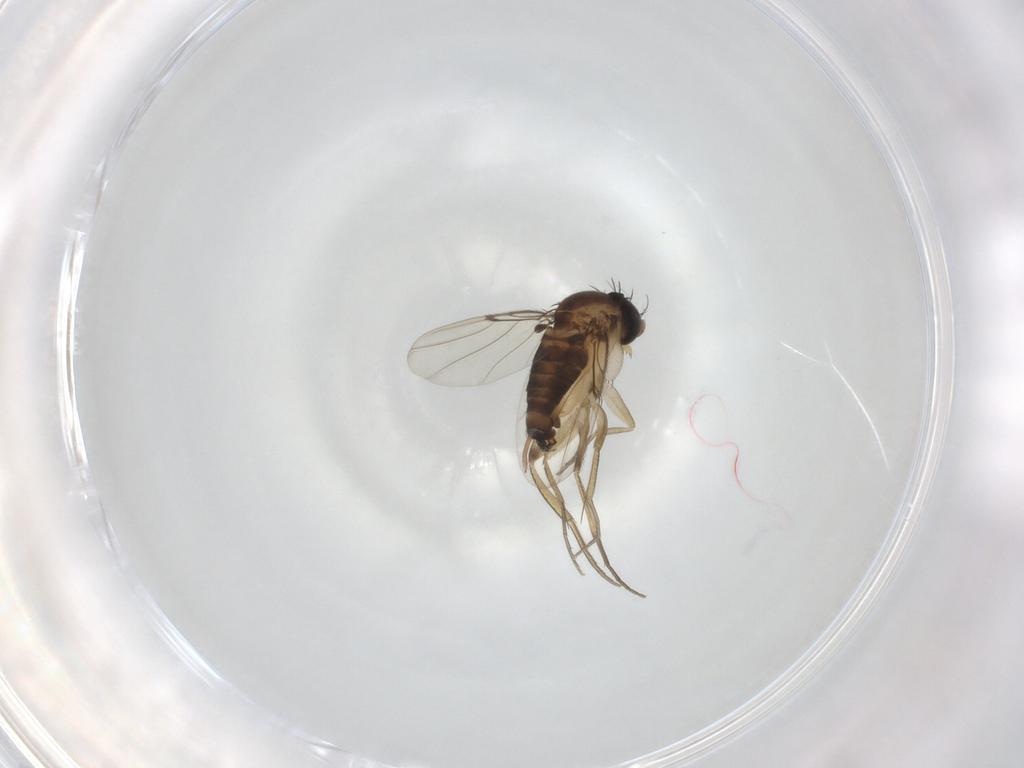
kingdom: Animalia
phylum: Arthropoda
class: Insecta
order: Diptera
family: Phoridae
